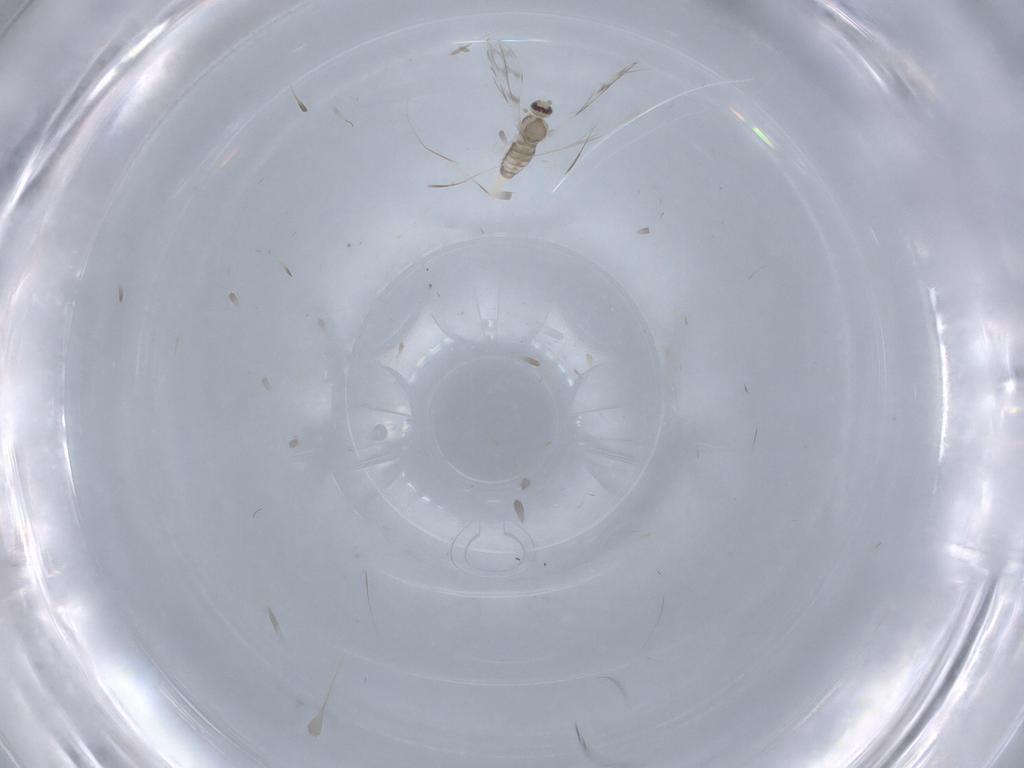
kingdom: Animalia
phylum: Arthropoda
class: Insecta
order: Diptera
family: Cecidomyiidae
